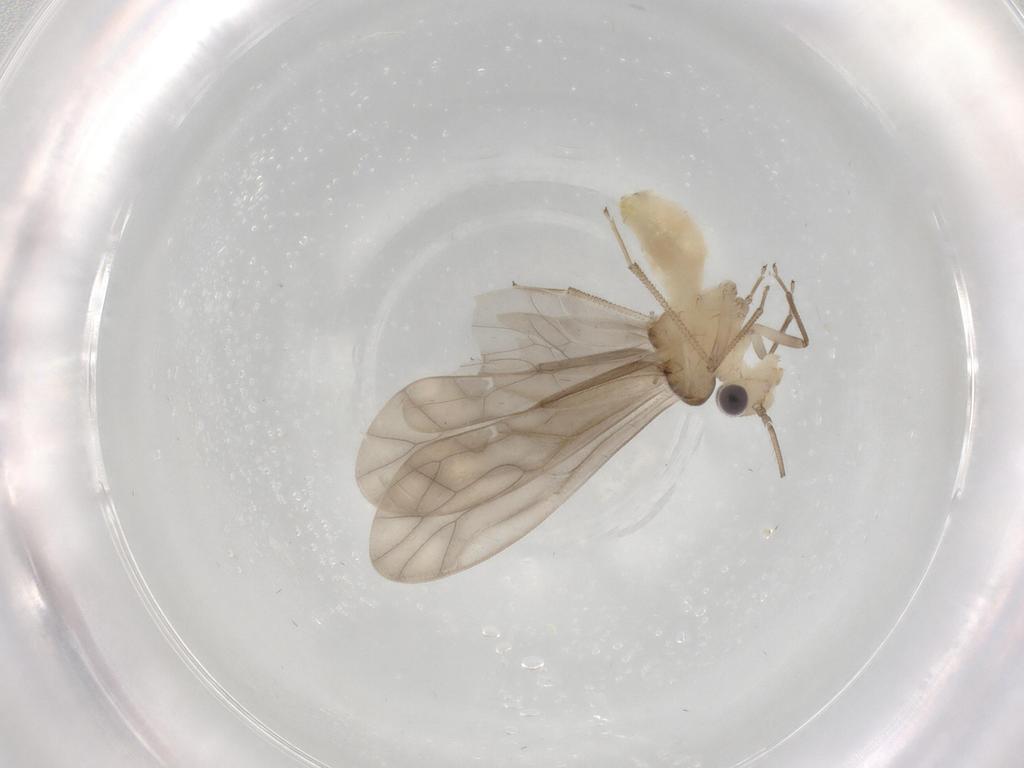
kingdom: Animalia
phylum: Arthropoda
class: Insecta
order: Psocodea
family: Caeciliusidae
